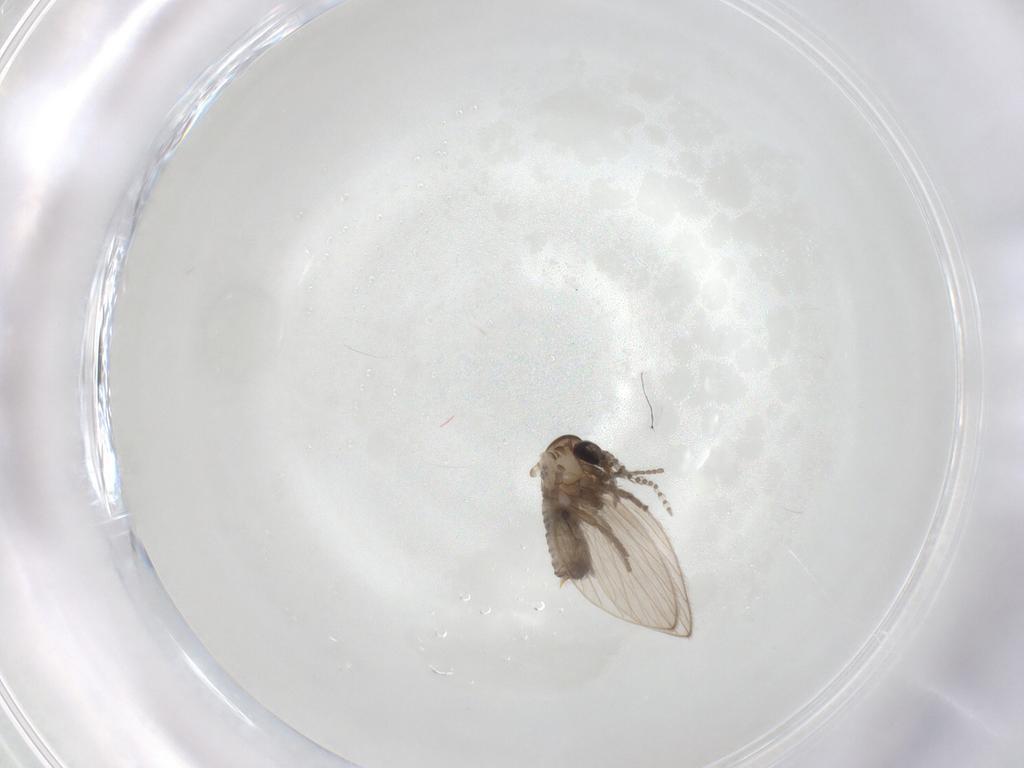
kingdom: Animalia
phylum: Arthropoda
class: Insecta
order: Diptera
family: Psychodidae
